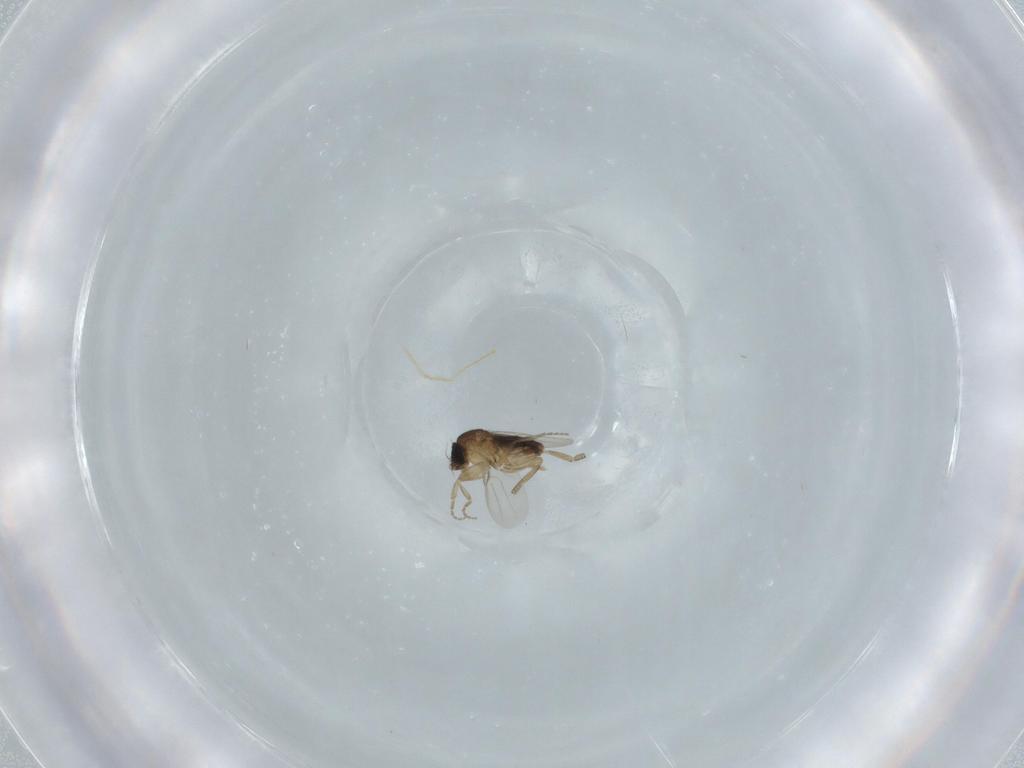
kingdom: Animalia
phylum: Arthropoda
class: Insecta
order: Diptera
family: Phoridae
